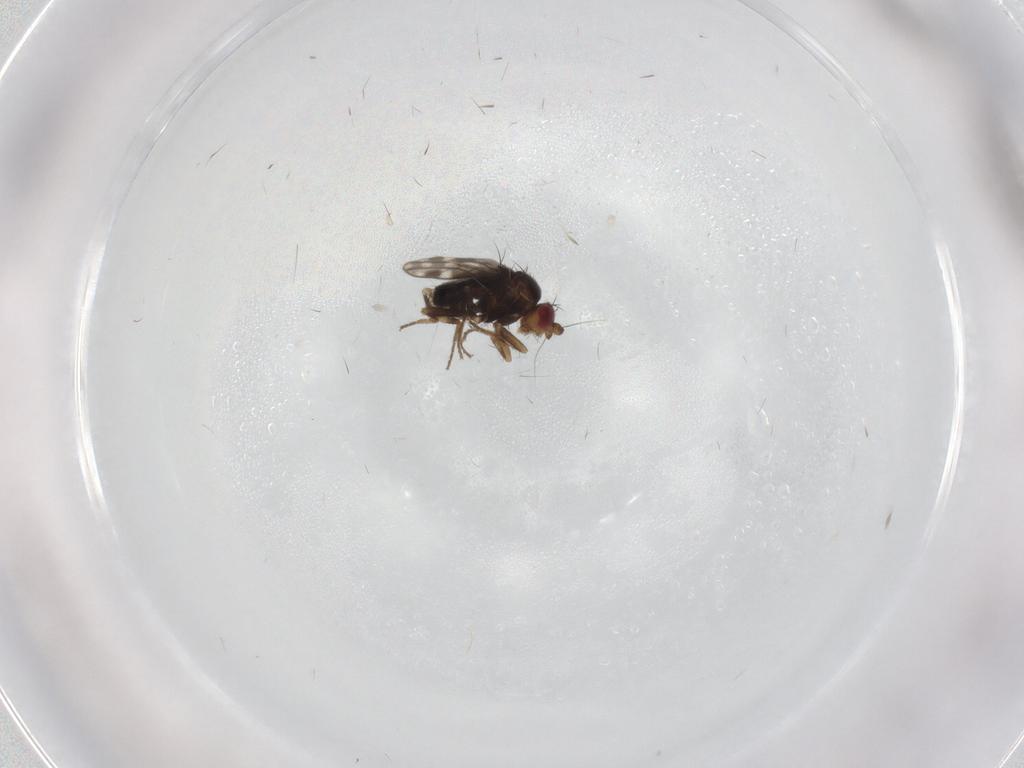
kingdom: Animalia
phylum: Arthropoda
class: Insecta
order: Diptera
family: Sphaeroceridae
